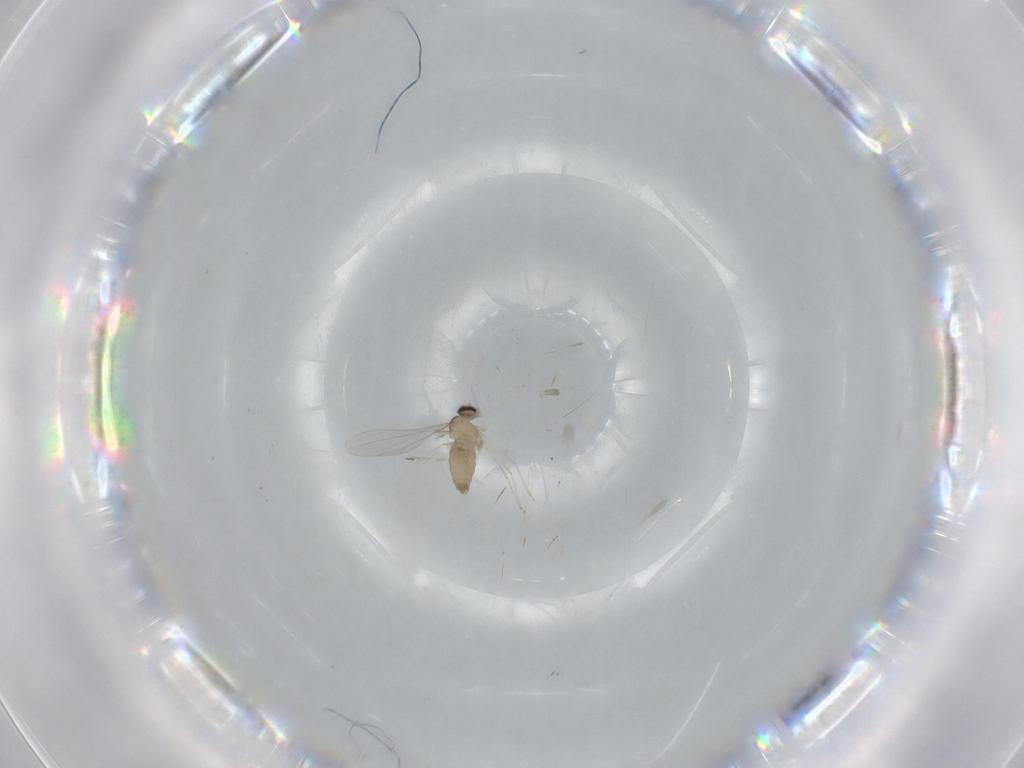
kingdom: Animalia
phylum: Arthropoda
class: Insecta
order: Diptera
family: Cecidomyiidae
